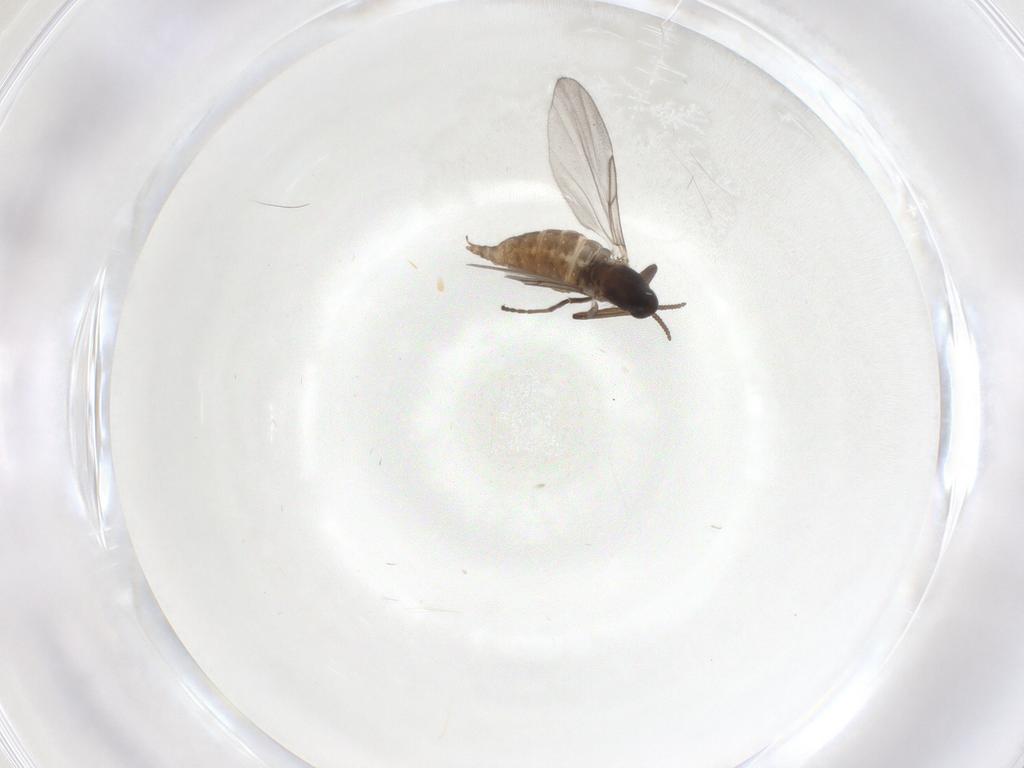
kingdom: Animalia
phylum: Arthropoda
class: Insecta
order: Diptera
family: Cecidomyiidae
